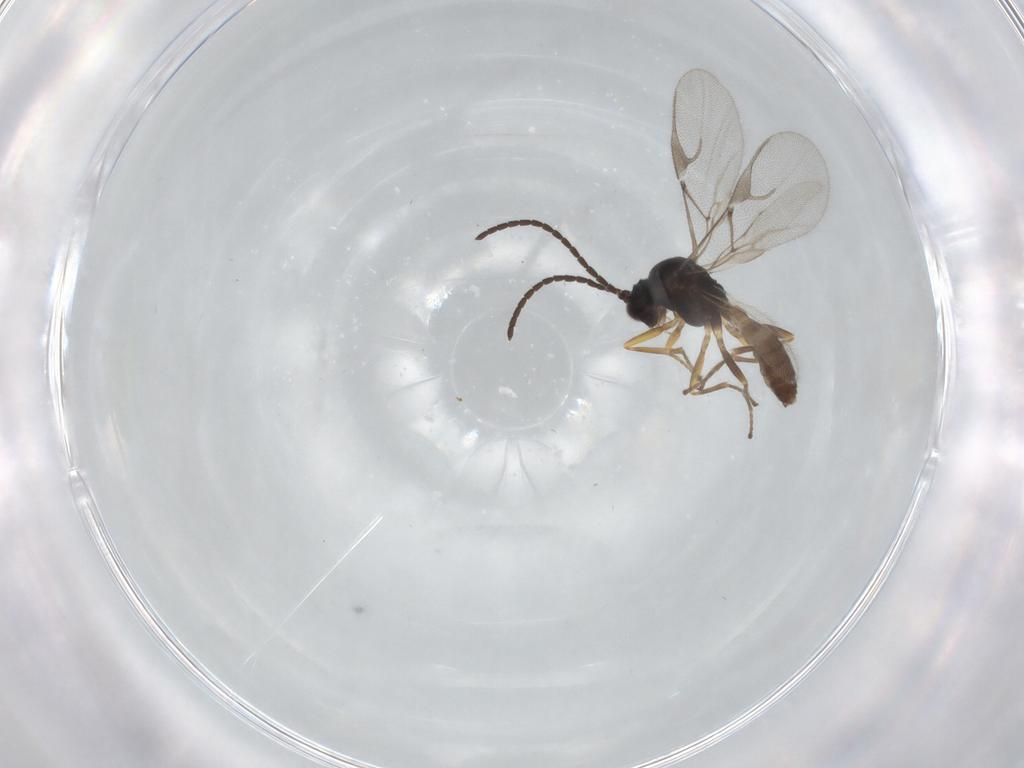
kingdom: Animalia
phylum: Arthropoda
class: Insecta
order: Hymenoptera
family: Braconidae
